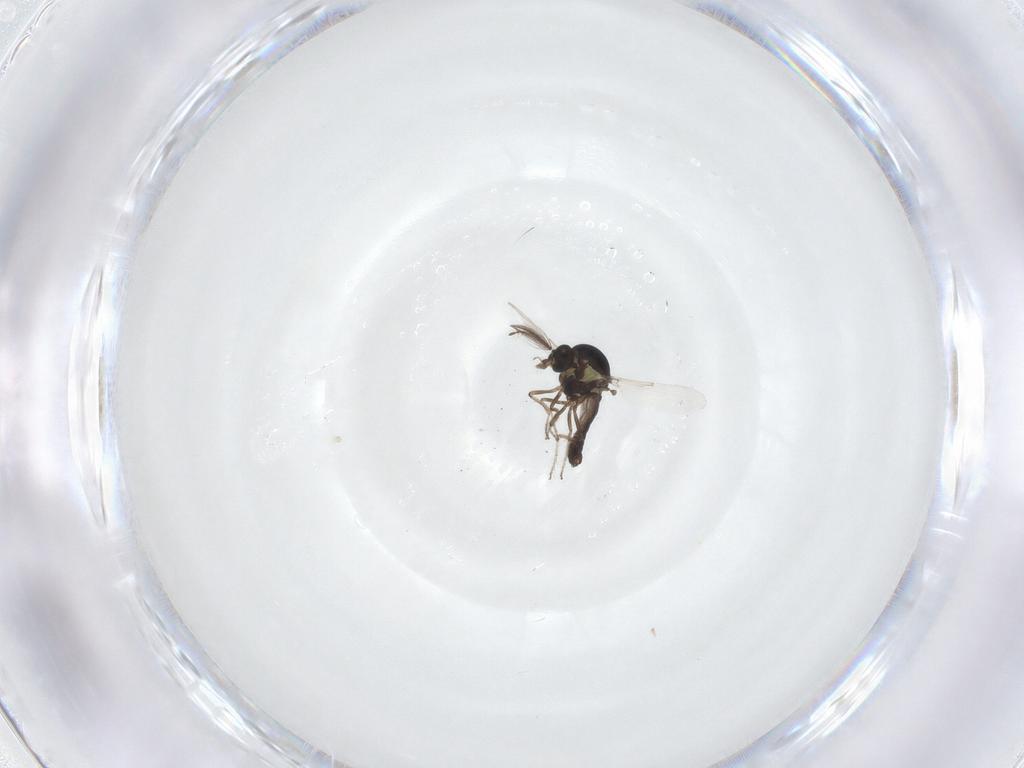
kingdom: Animalia
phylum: Arthropoda
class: Insecta
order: Diptera
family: Ceratopogonidae
